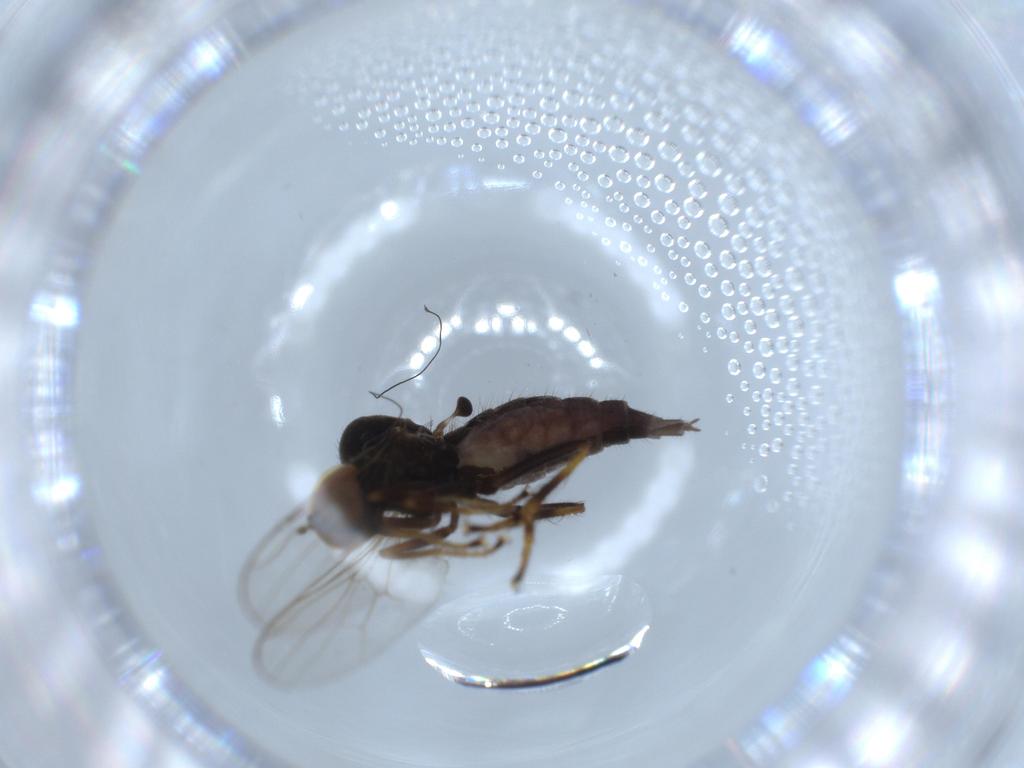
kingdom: Animalia
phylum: Arthropoda
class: Insecta
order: Diptera
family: Hybotidae
